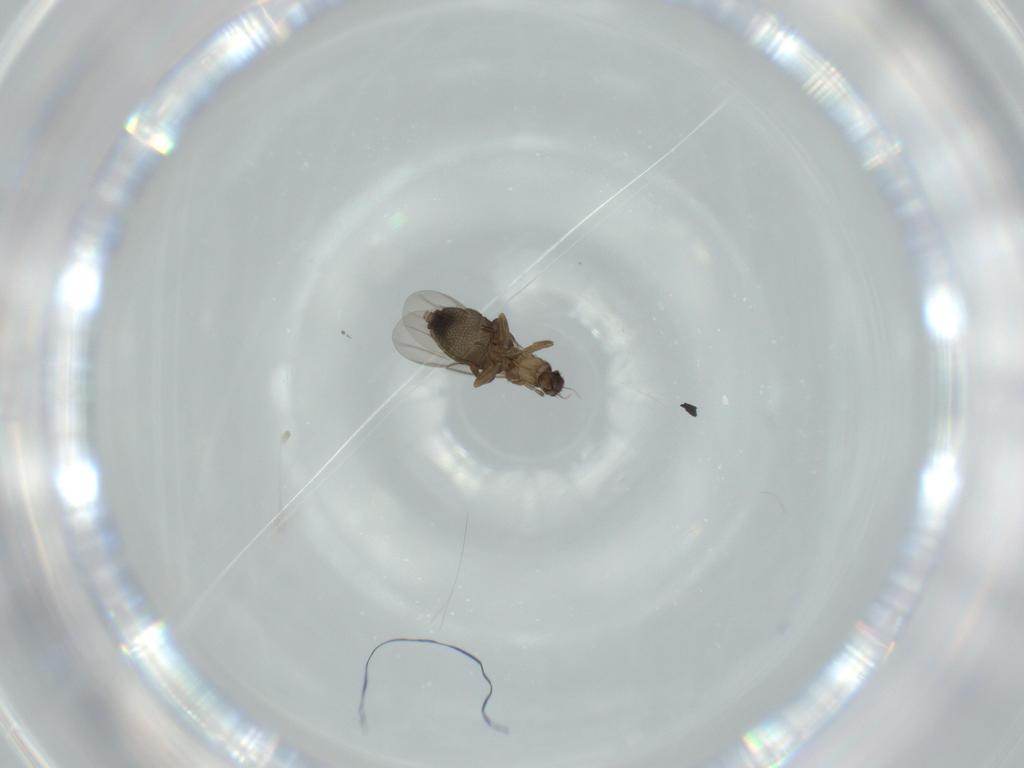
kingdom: Animalia
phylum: Arthropoda
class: Insecta
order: Diptera
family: Phoridae
